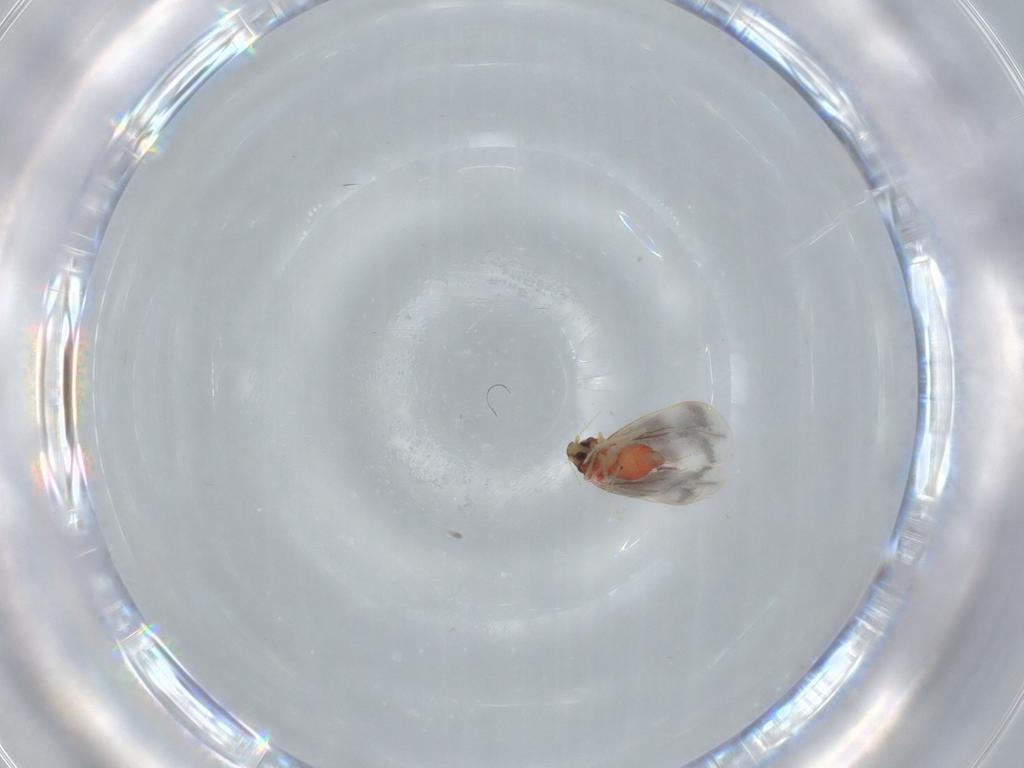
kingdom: Animalia
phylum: Arthropoda
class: Insecta
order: Hemiptera
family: Aleyrodidae
